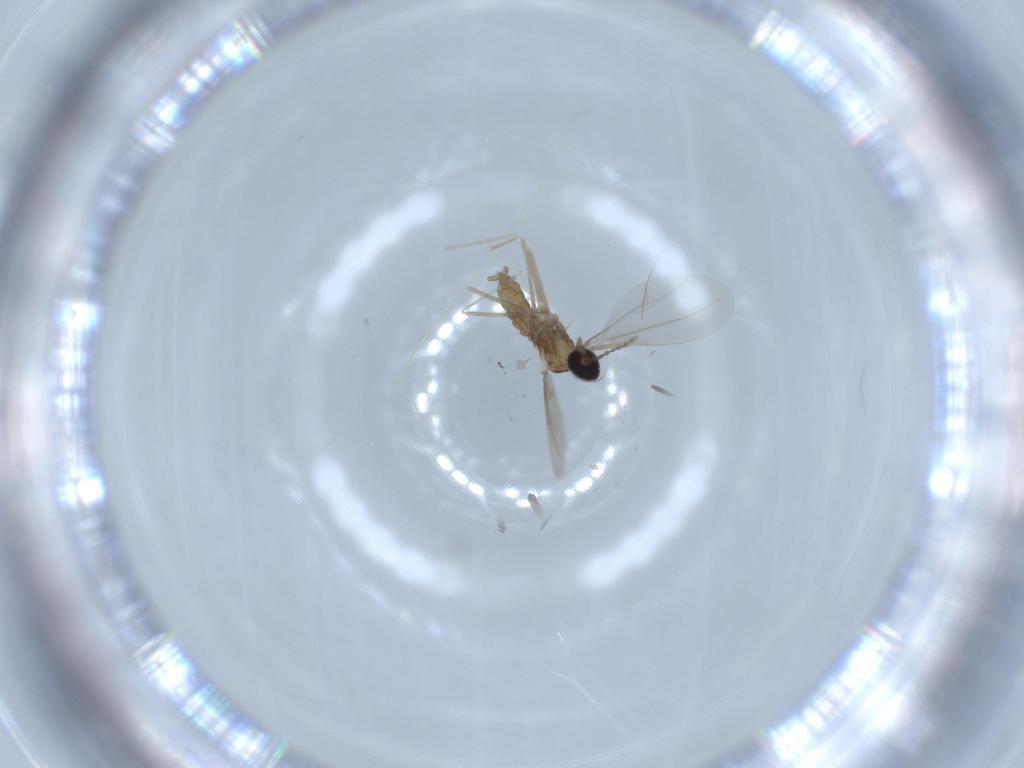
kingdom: Animalia
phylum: Arthropoda
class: Insecta
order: Diptera
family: Cecidomyiidae
